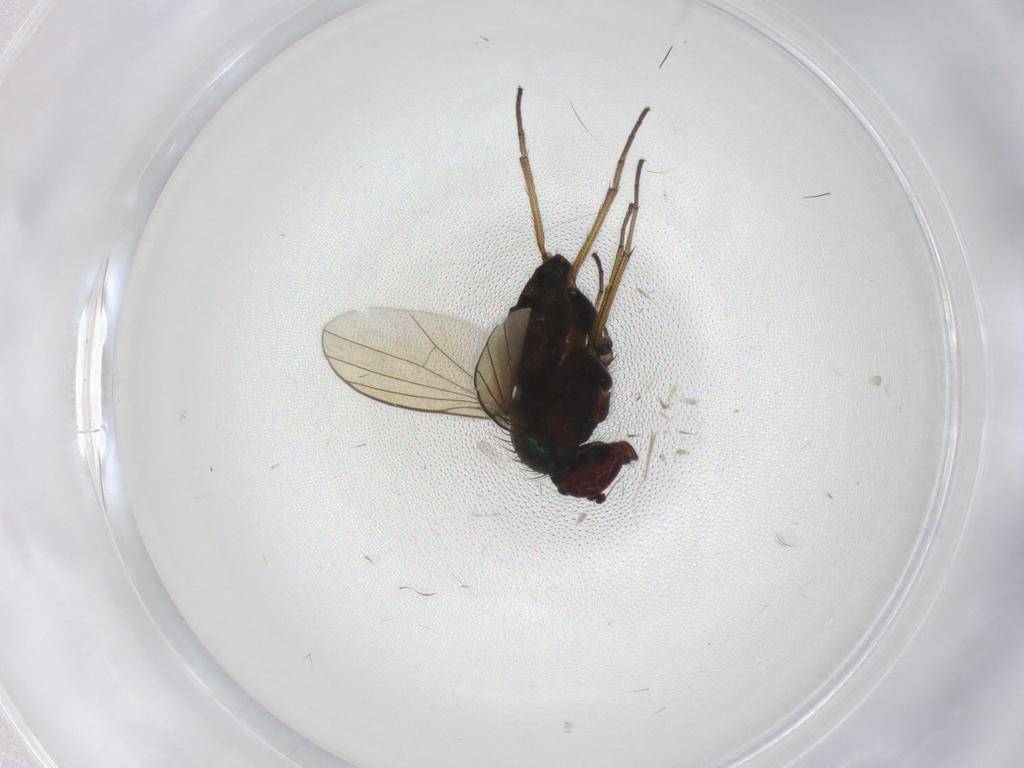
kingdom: Animalia
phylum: Arthropoda
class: Insecta
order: Diptera
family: Dolichopodidae
